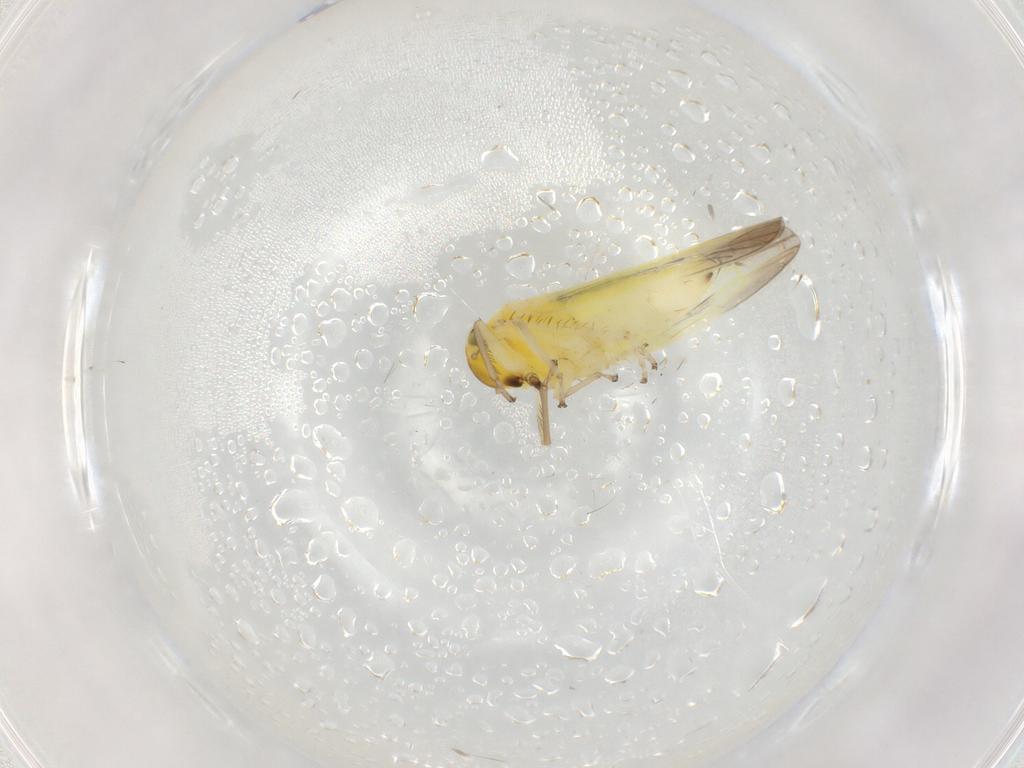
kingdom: Animalia
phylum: Arthropoda
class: Insecta
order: Hemiptera
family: Cicadellidae
